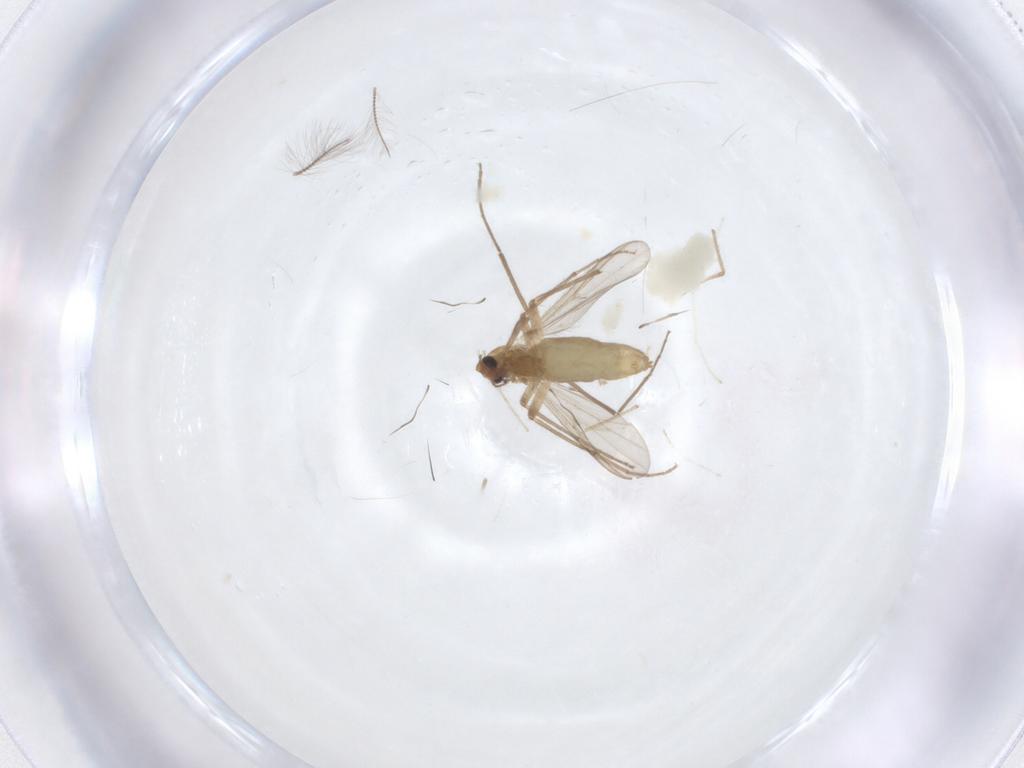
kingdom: Animalia
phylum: Arthropoda
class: Insecta
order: Diptera
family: Chironomidae
